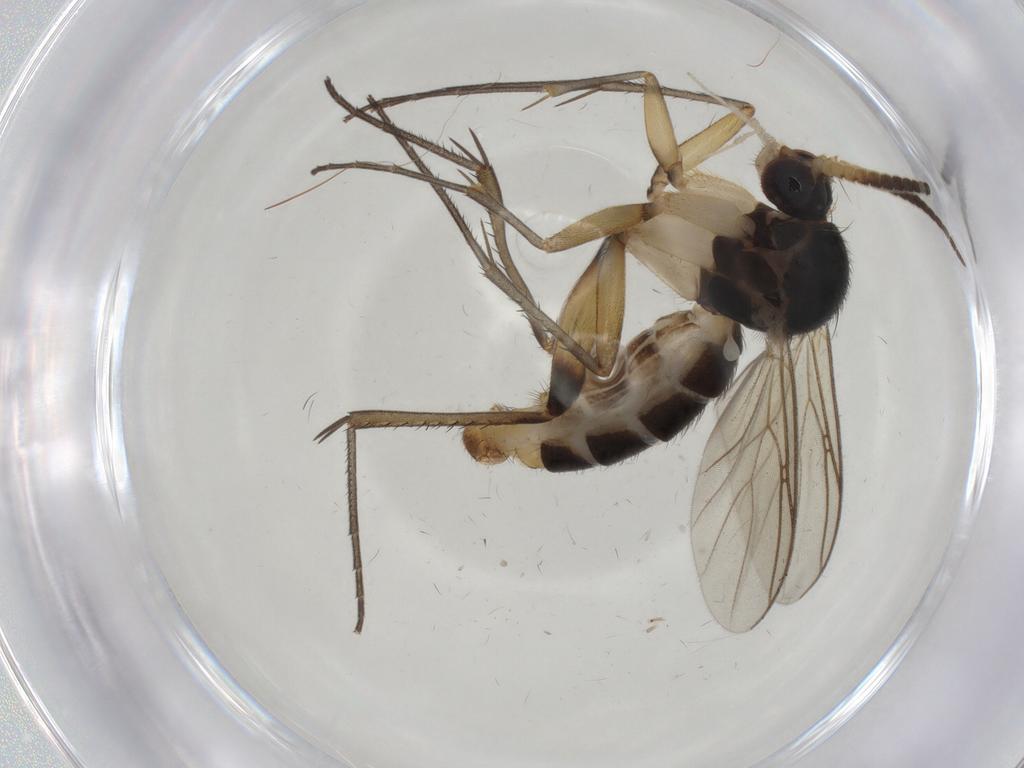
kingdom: Animalia
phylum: Arthropoda
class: Insecta
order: Diptera
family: Mycetophilidae
